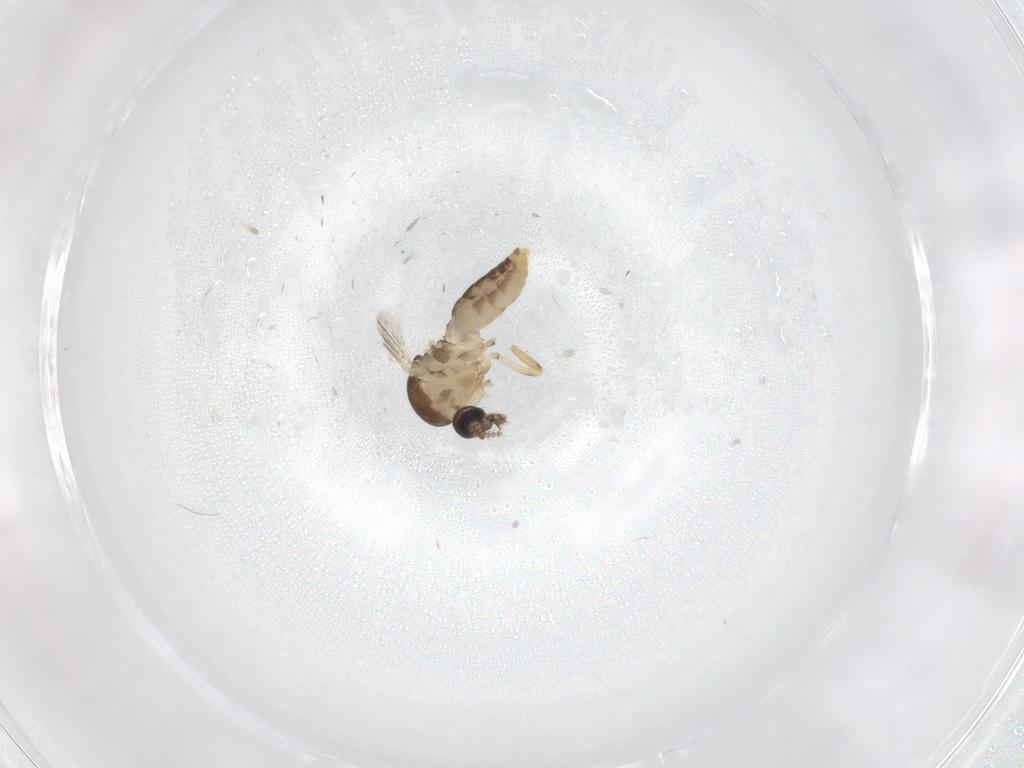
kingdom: Animalia
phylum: Arthropoda
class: Insecta
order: Diptera
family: Ceratopogonidae
